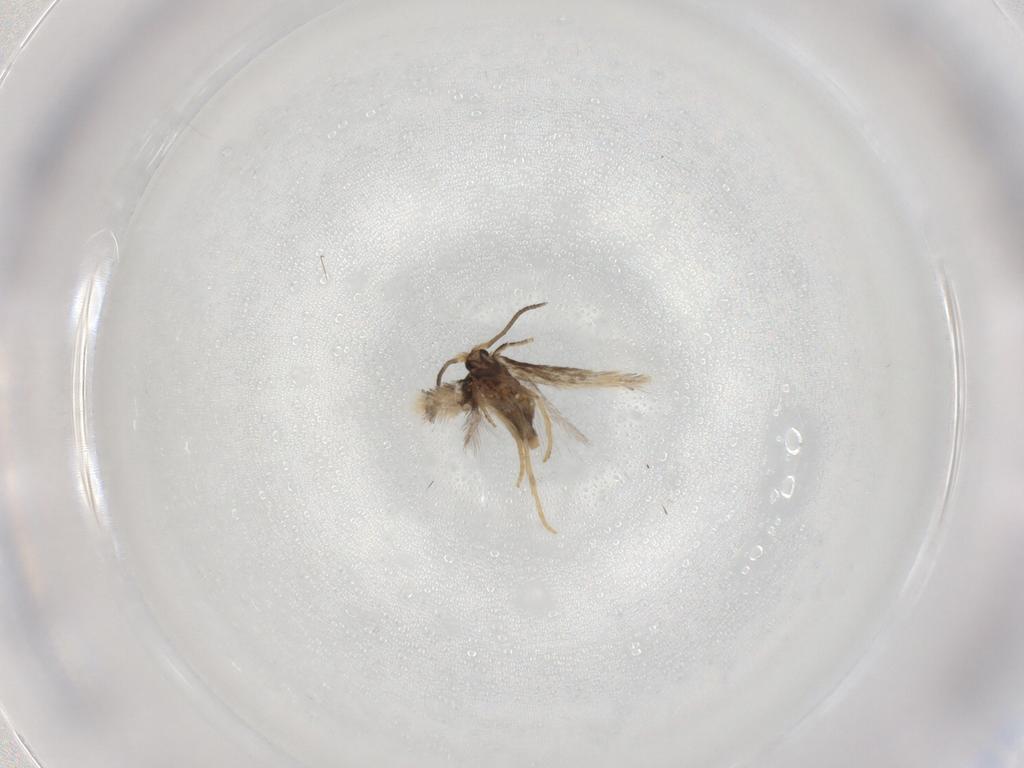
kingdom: Animalia
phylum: Arthropoda
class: Insecta
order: Lepidoptera
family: Nepticulidae
